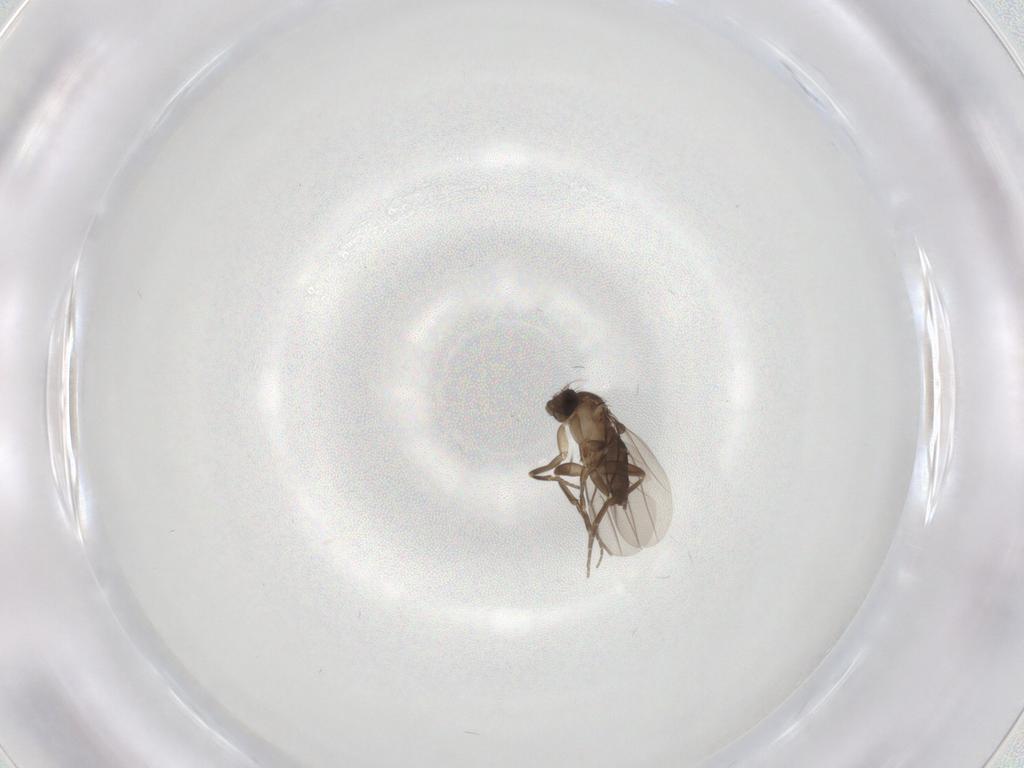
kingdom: Animalia
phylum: Arthropoda
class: Insecta
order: Diptera
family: Phoridae
